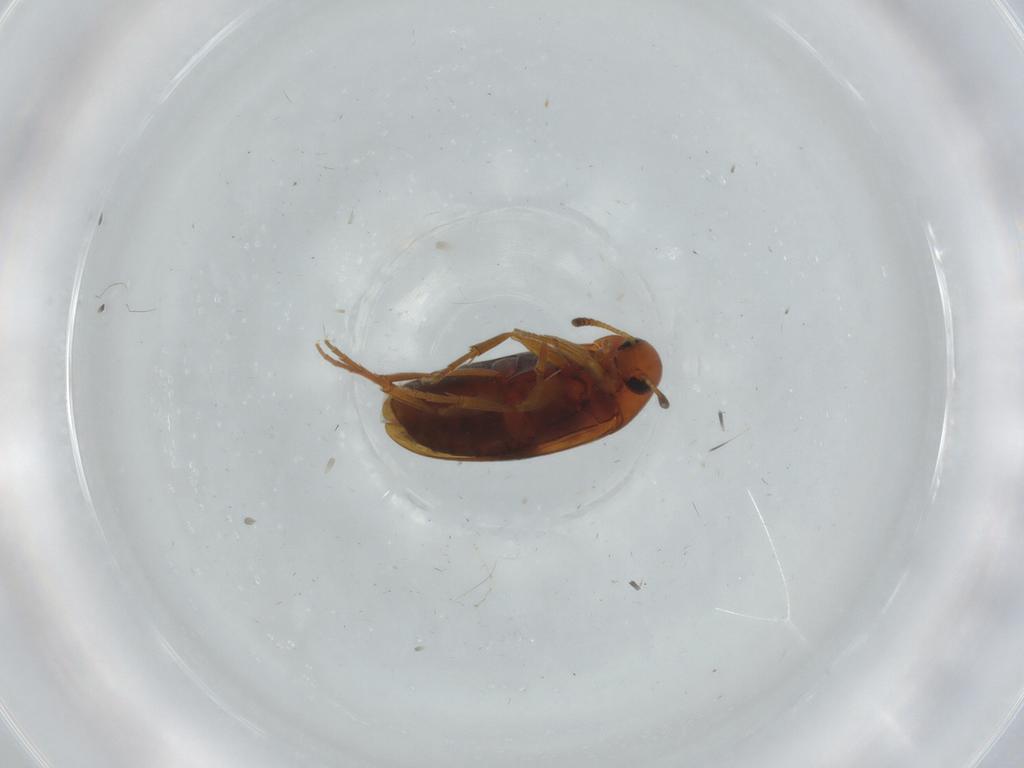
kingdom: Animalia
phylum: Arthropoda
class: Insecta
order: Coleoptera
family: Scraptiidae
